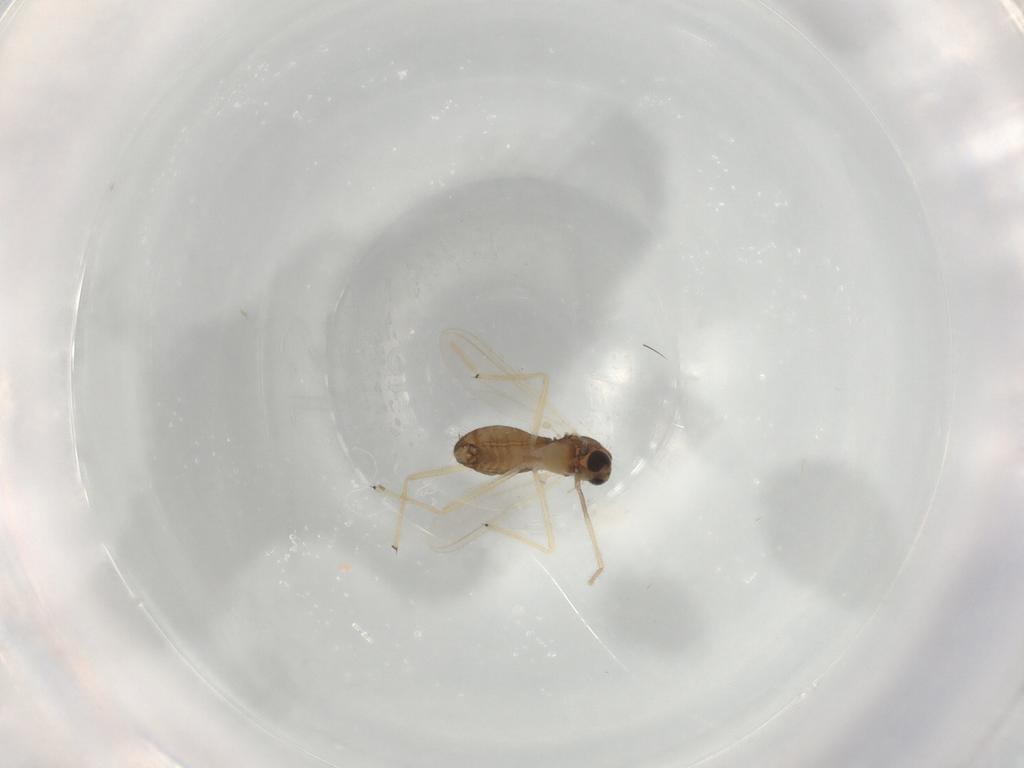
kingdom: Animalia
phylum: Arthropoda
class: Insecta
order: Diptera
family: Chironomidae
